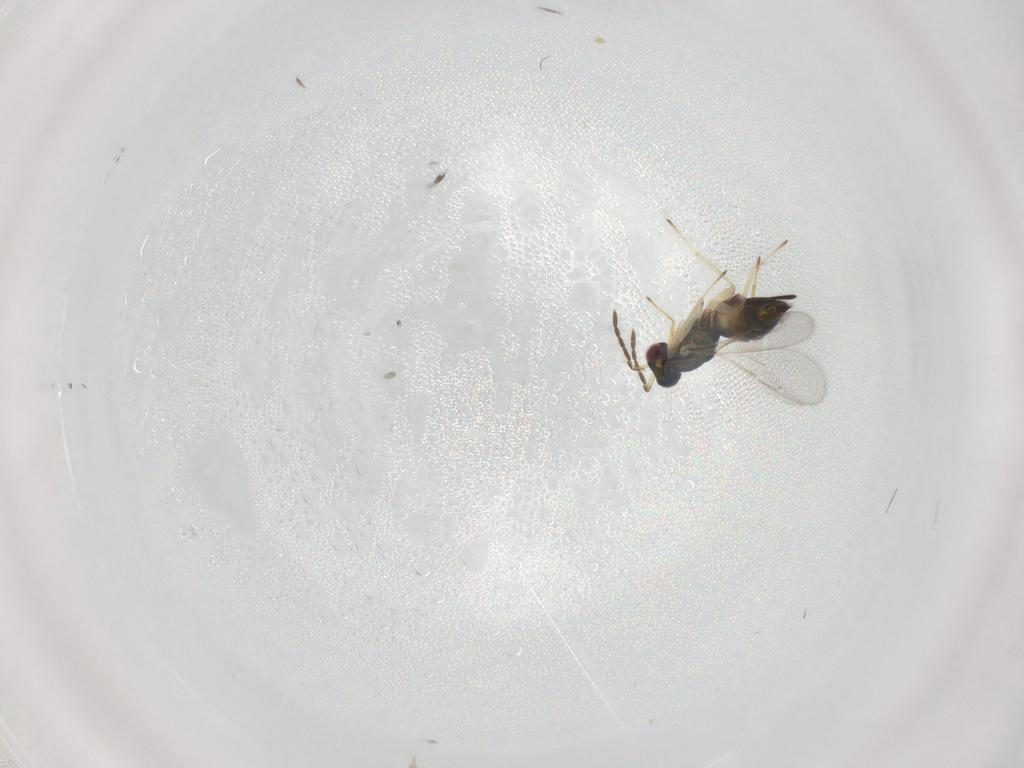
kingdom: Animalia
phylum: Arthropoda
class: Insecta
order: Hymenoptera
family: Eulophidae
